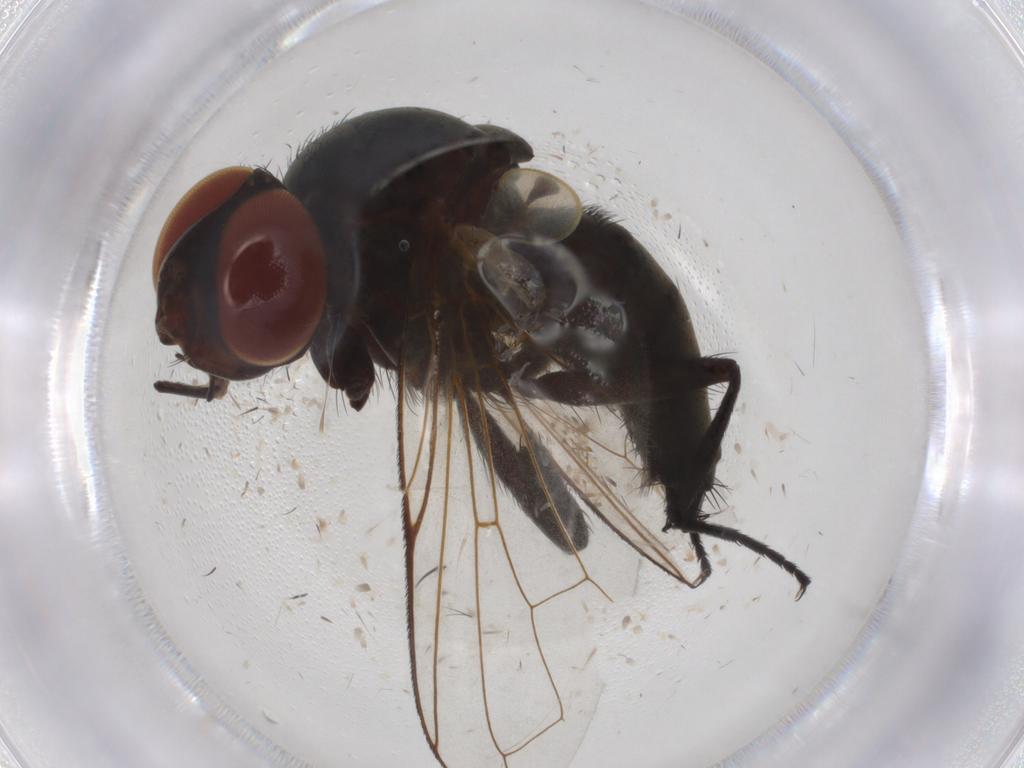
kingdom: Animalia
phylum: Arthropoda
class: Insecta
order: Diptera
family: Tachinidae
